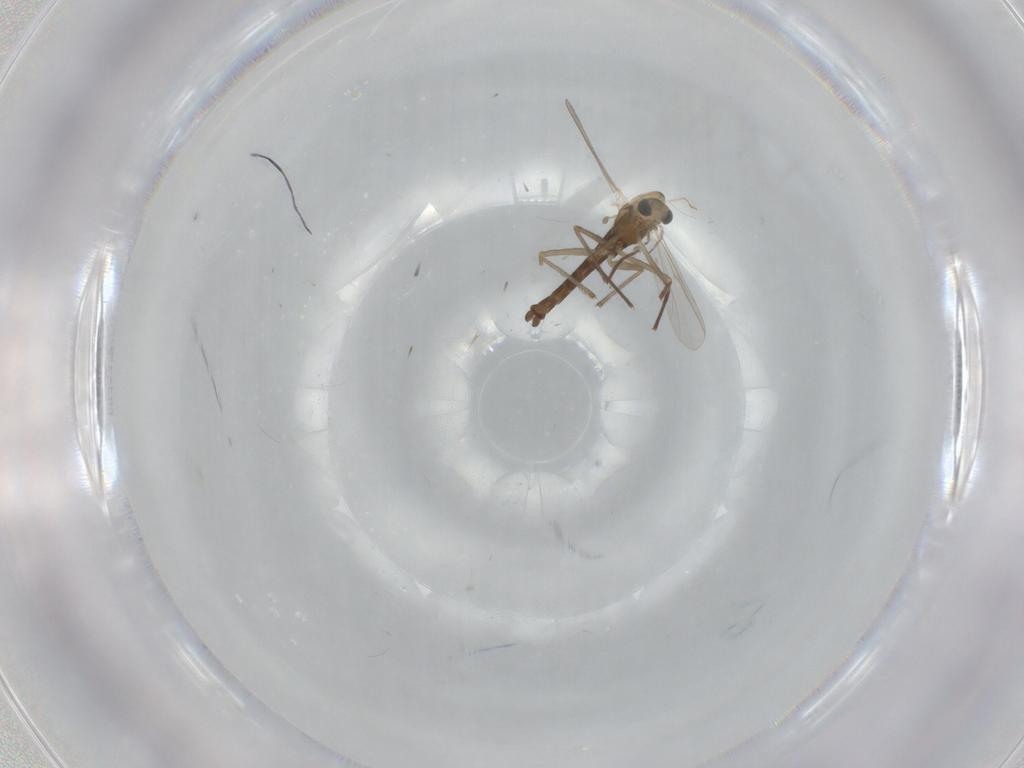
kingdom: Animalia
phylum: Arthropoda
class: Insecta
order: Diptera
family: Chironomidae
